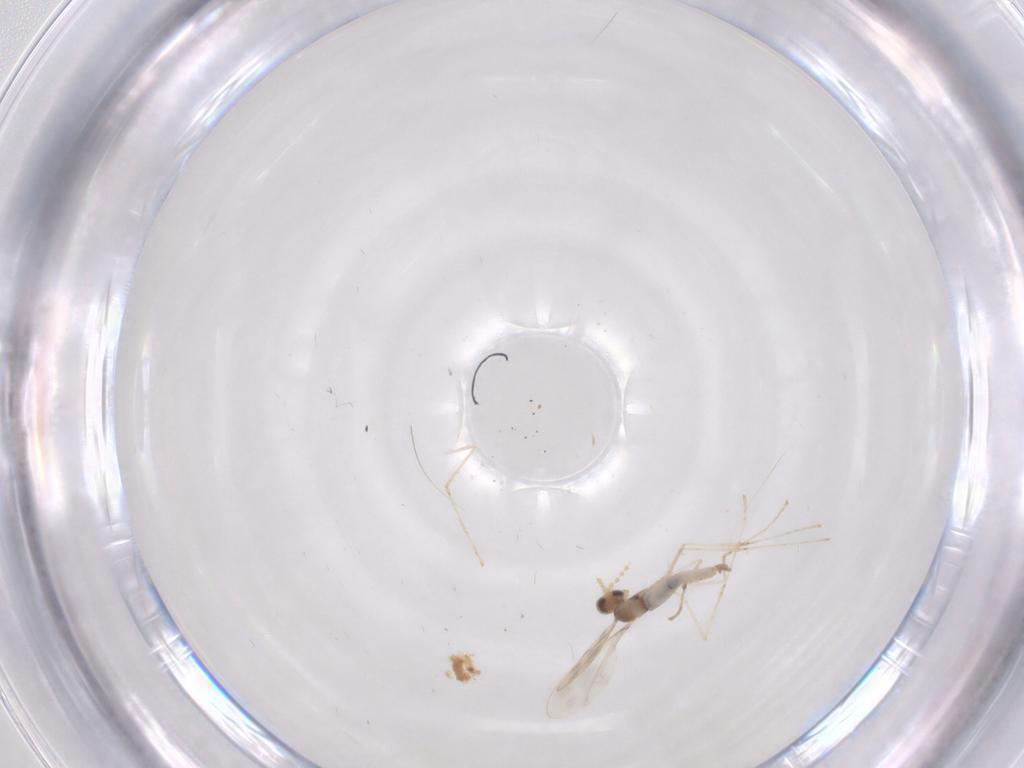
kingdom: Animalia
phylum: Arthropoda
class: Insecta
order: Diptera
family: Cecidomyiidae
